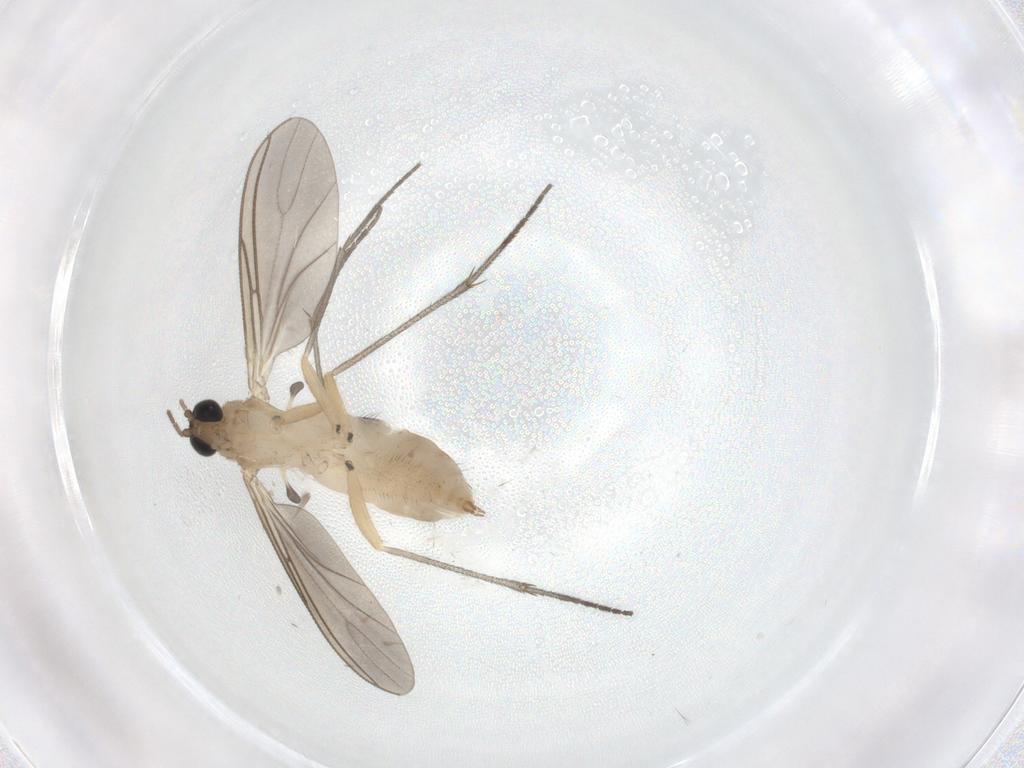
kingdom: Animalia
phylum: Arthropoda
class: Insecta
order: Diptera
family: Sciaridae
